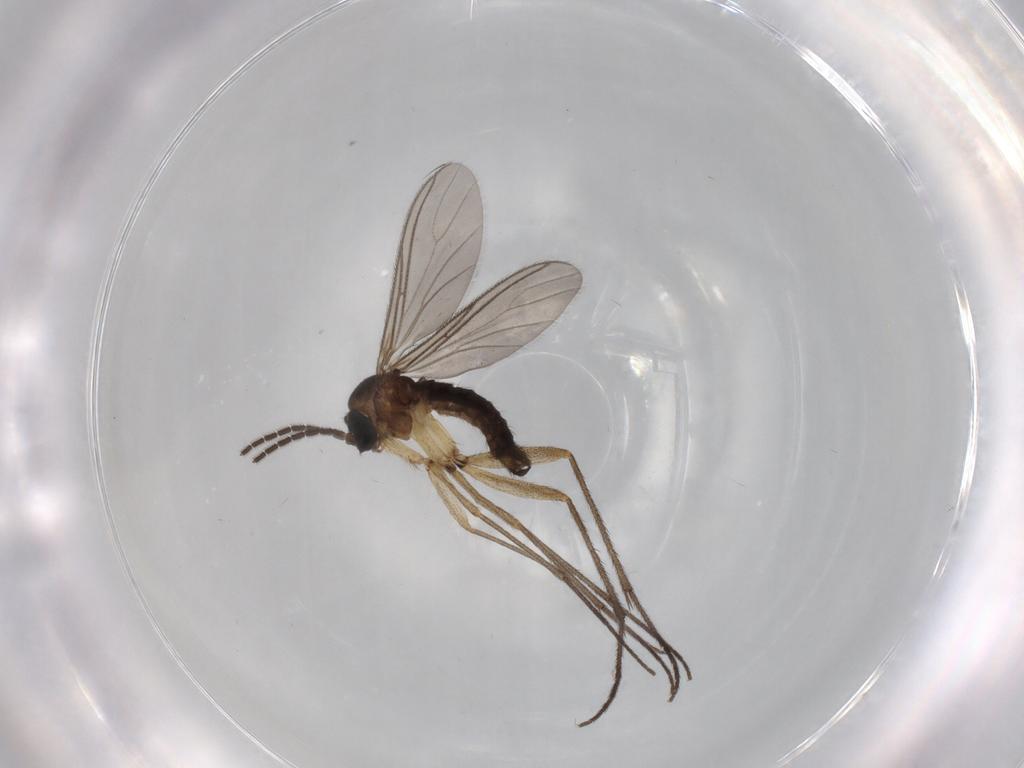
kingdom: Animalia
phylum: Arthropoda
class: Insecta
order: Diptera
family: Sciaridae
